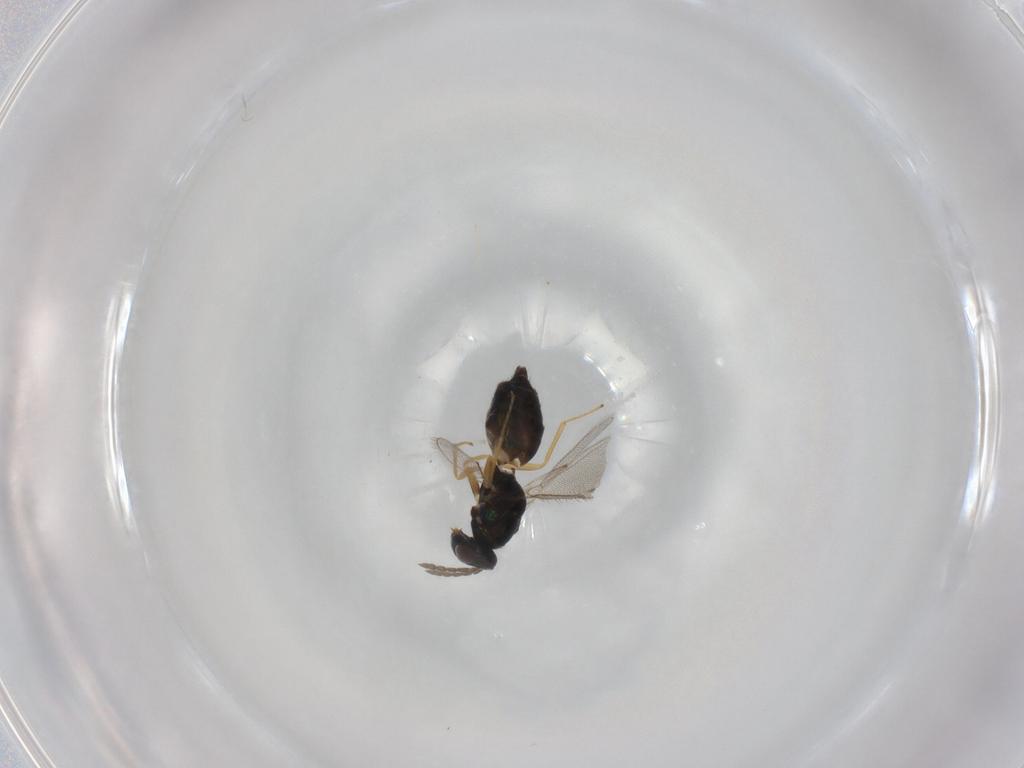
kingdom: Animalia
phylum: Arthropoda
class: Insecta
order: Hymenoptera
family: Eulophidae
